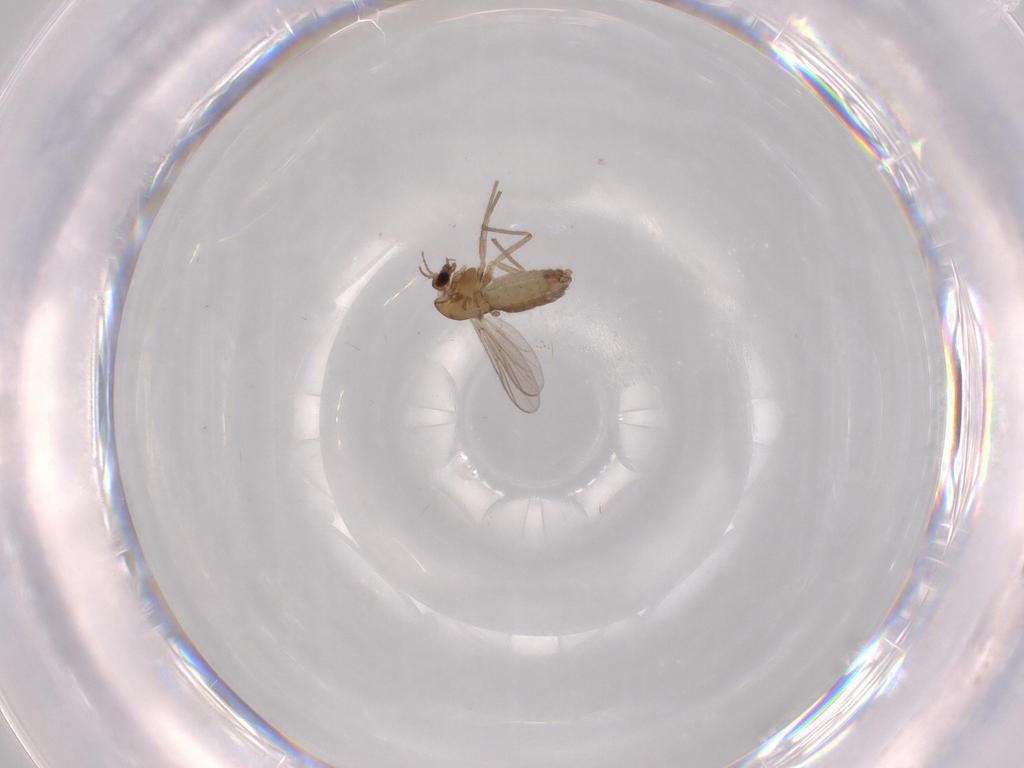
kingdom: Animalia
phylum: Arthropoda
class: Insecta
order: Diptera
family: Chironomidae
